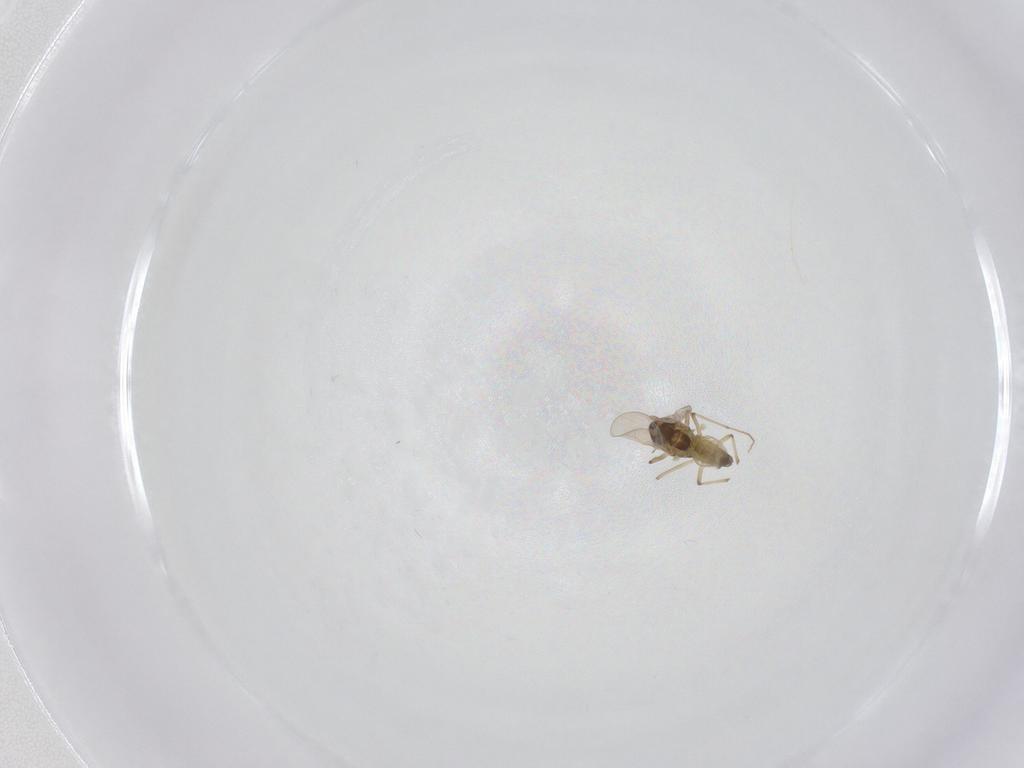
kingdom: Animalia
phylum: Arthropoda
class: Insecta
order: Diptera
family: Chironomidae
